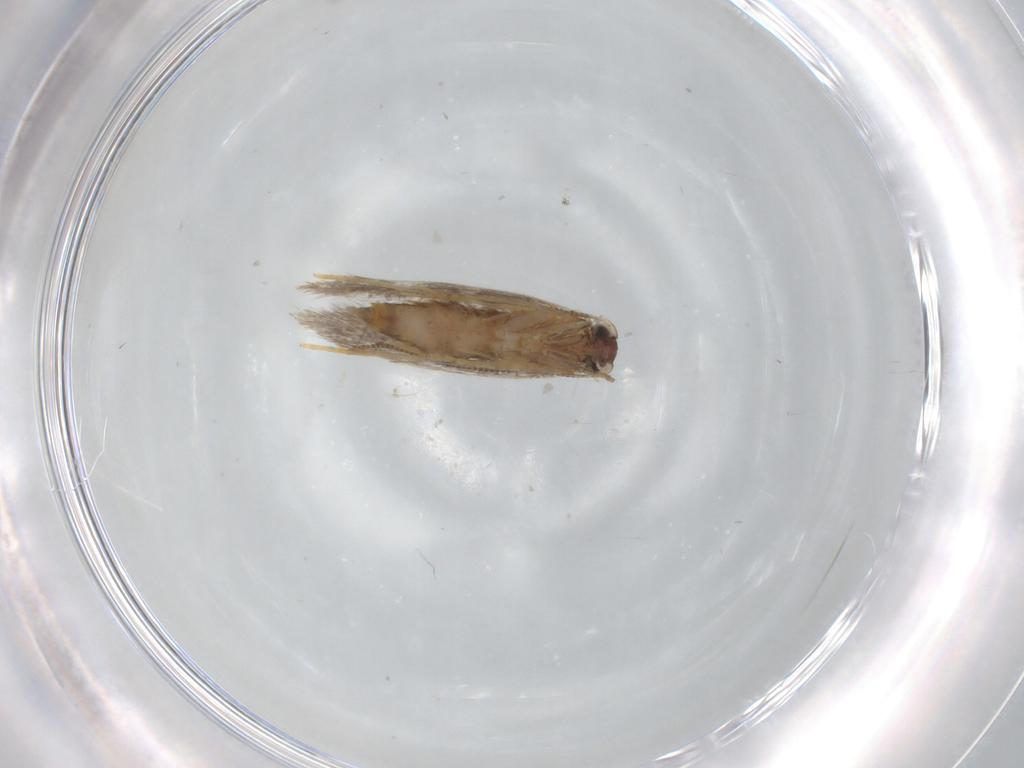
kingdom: Animalia
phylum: Arthropoda
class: Insecta
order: Lepidoptera
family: Tineidae
